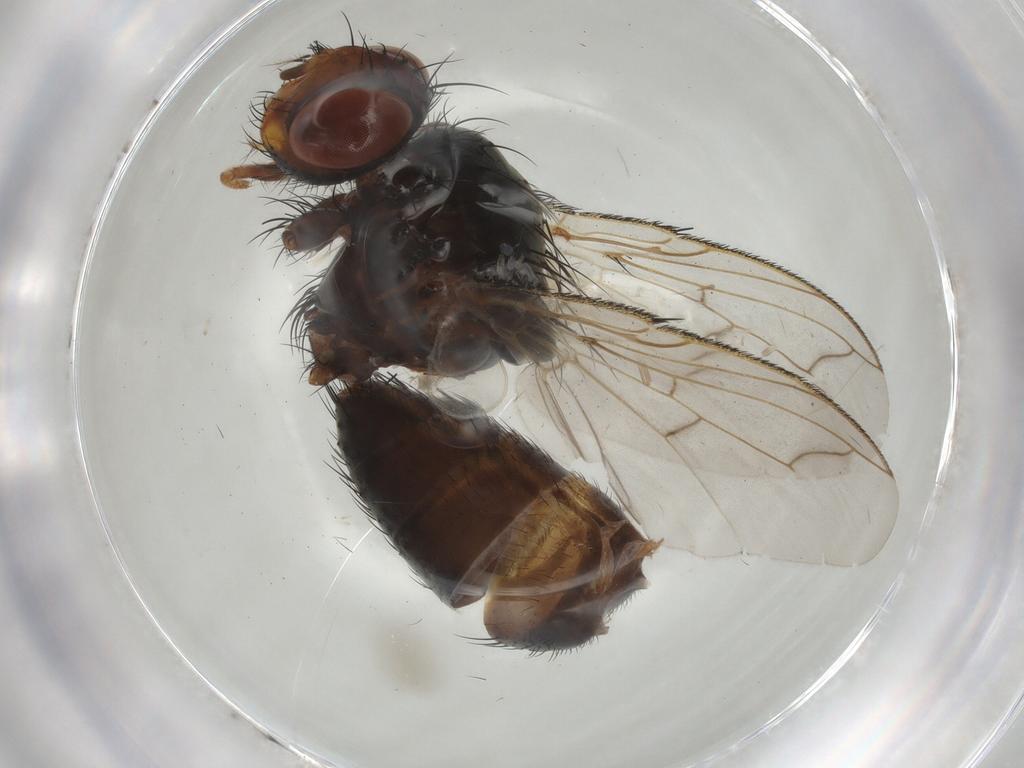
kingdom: Animalia
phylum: Arthropoda
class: Insecta
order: Diptera
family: Tachinidae
